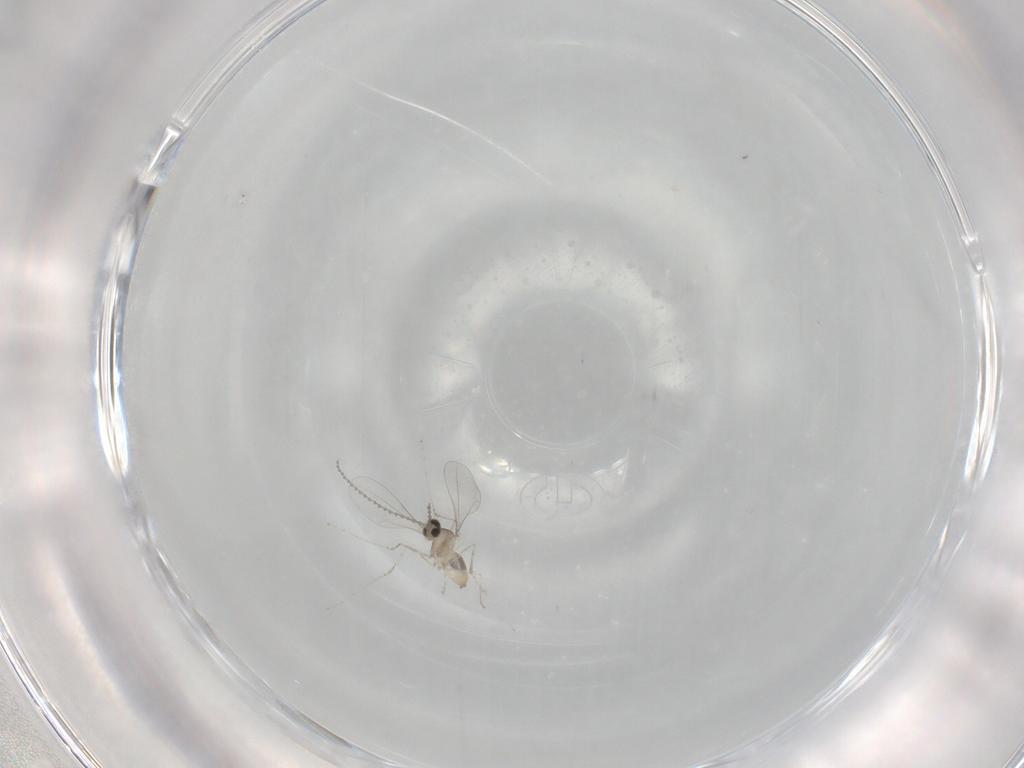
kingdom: Animalia
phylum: Arthropoda
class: Insecta
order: Diptera
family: Cecidomyiidae
